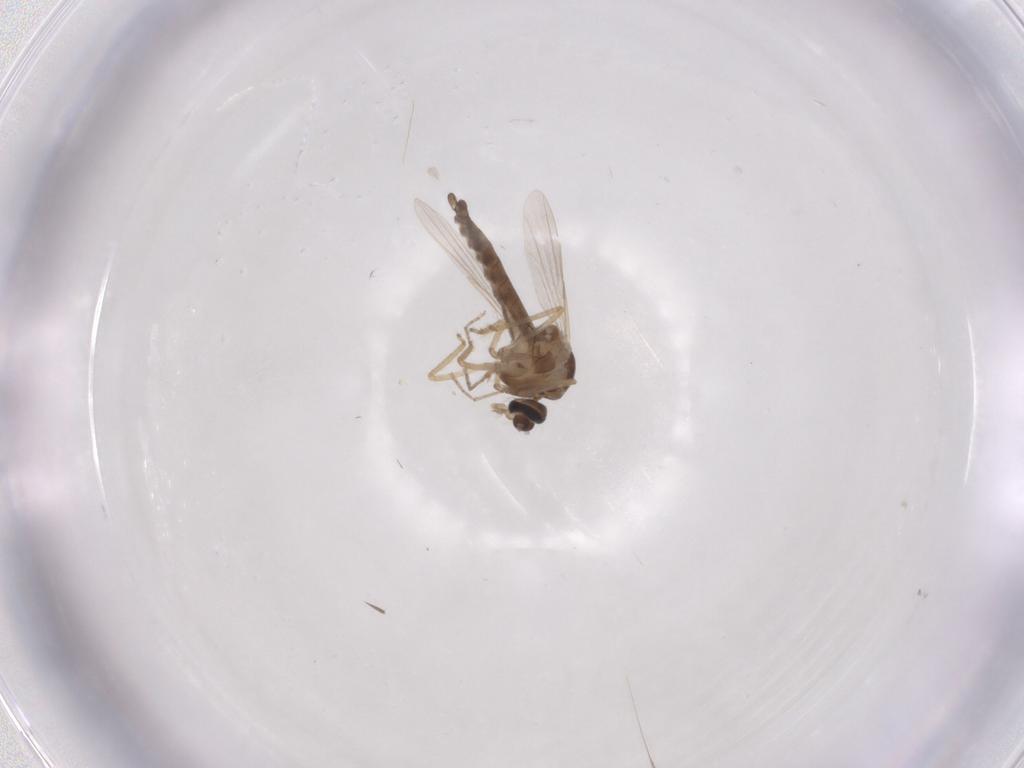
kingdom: Animalia
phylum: Arthropoda
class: Insecta
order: Diptera
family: Ceratopogonidae
